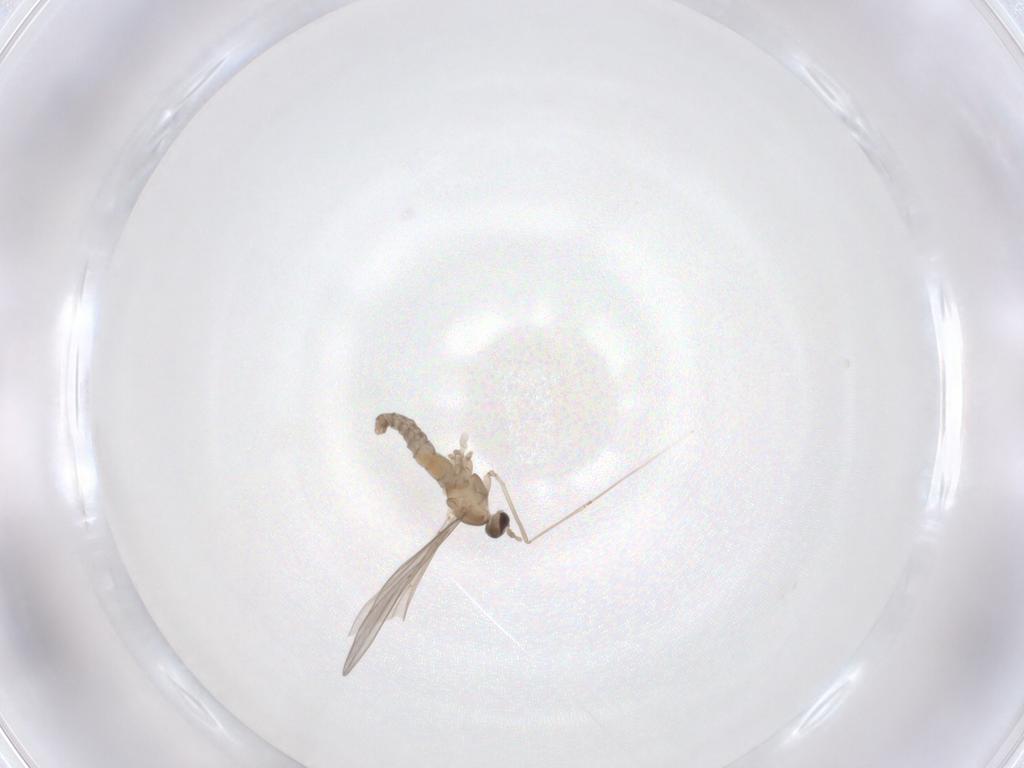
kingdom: Animalia
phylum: Arthropoda
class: Insecta
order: Diptera
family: Cecidomyiidae
